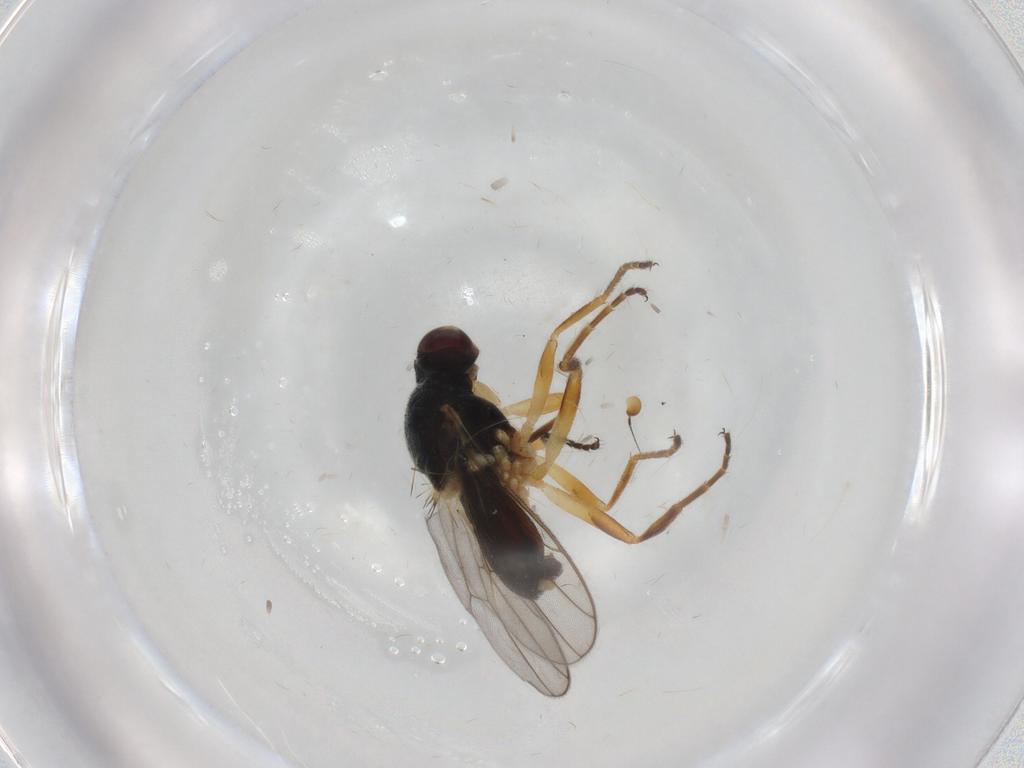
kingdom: Animalia
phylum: Arthropoda
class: Insecta
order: Diptera
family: Chloropidae
